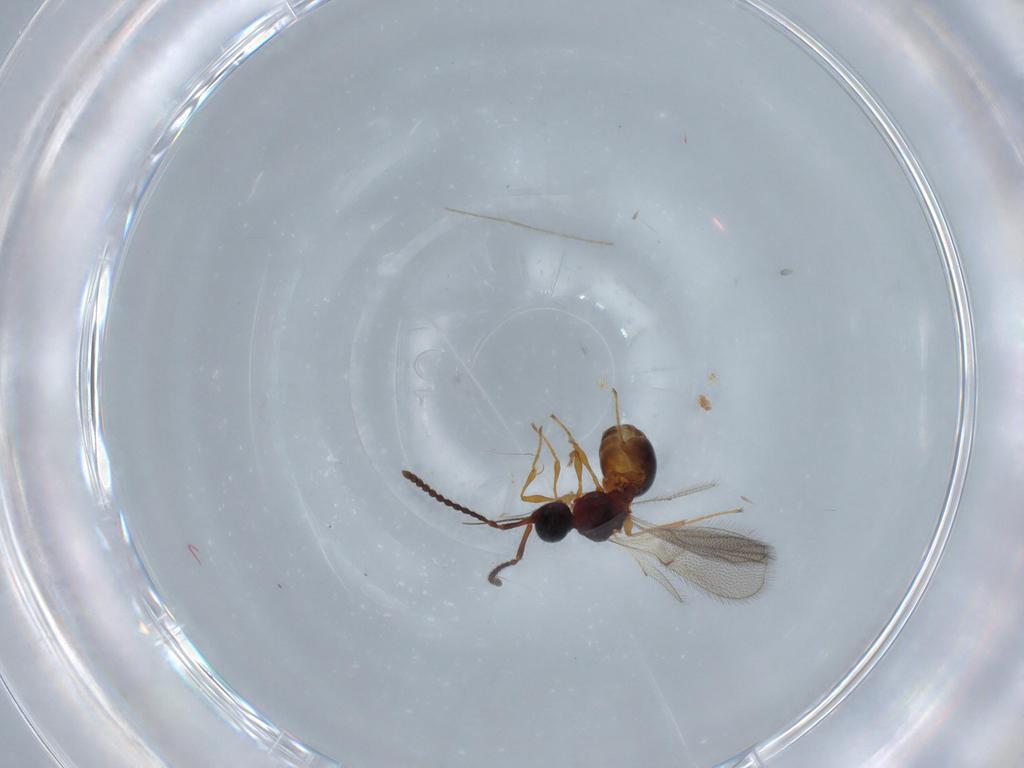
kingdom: Animalia
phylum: Arthropoda
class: Insecta
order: Hymenoptera
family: Diapriidae
